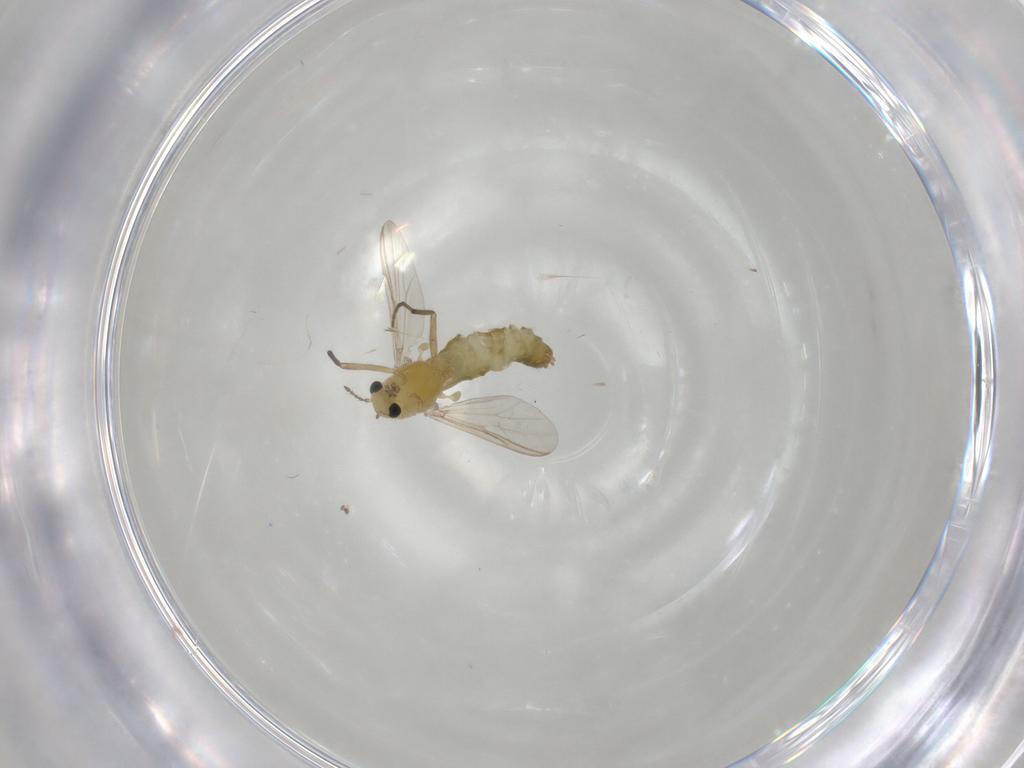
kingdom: Animalia
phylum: Arthropoda
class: Insecta
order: Diptera
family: Chironomidae
